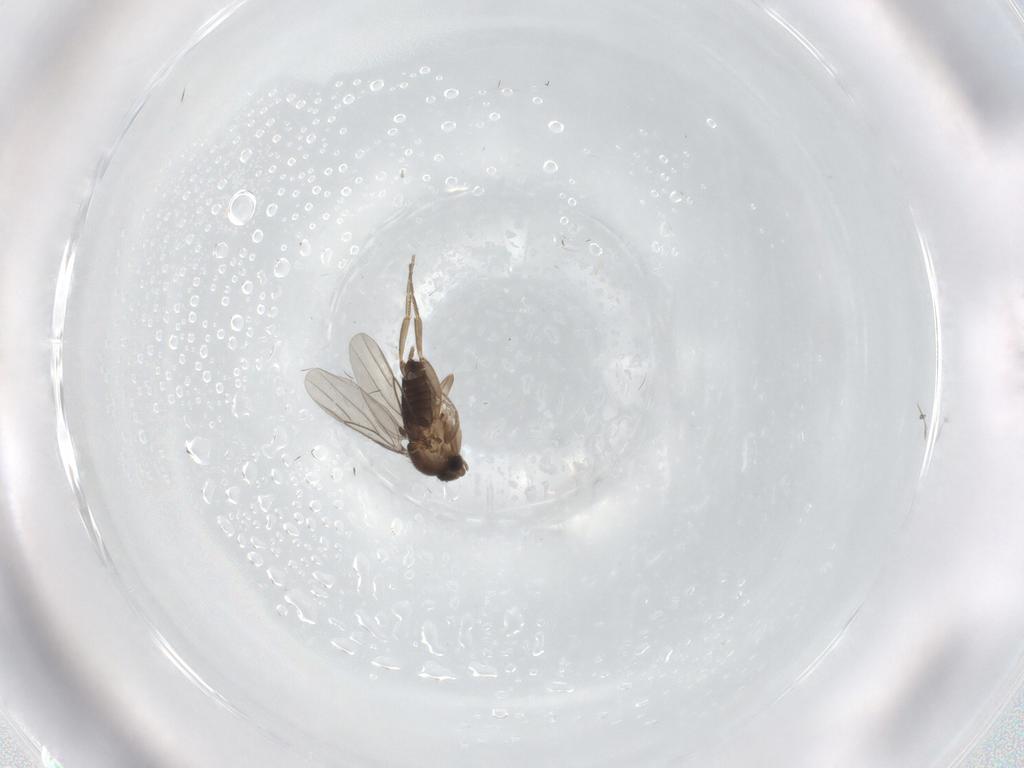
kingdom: Animalia
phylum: Arthropoda
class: Insecta
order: Diptera
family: Phoridae
